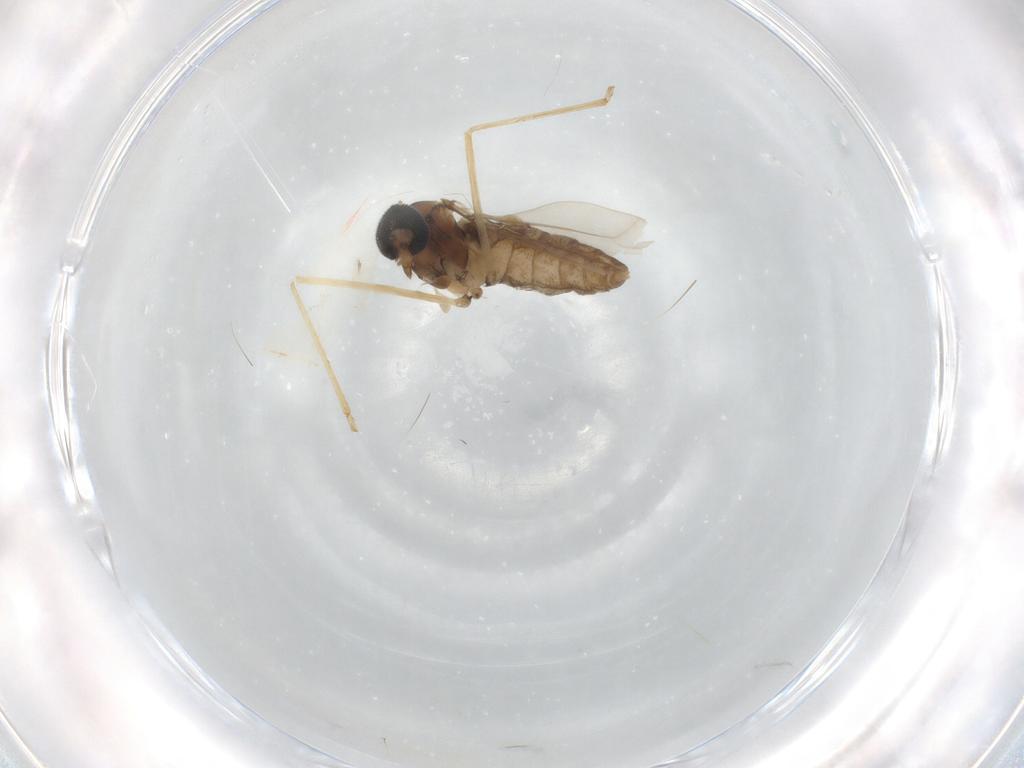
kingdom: Animalia
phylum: Arthropoda
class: Insecta
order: Diptera
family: Cecidomyiidae
